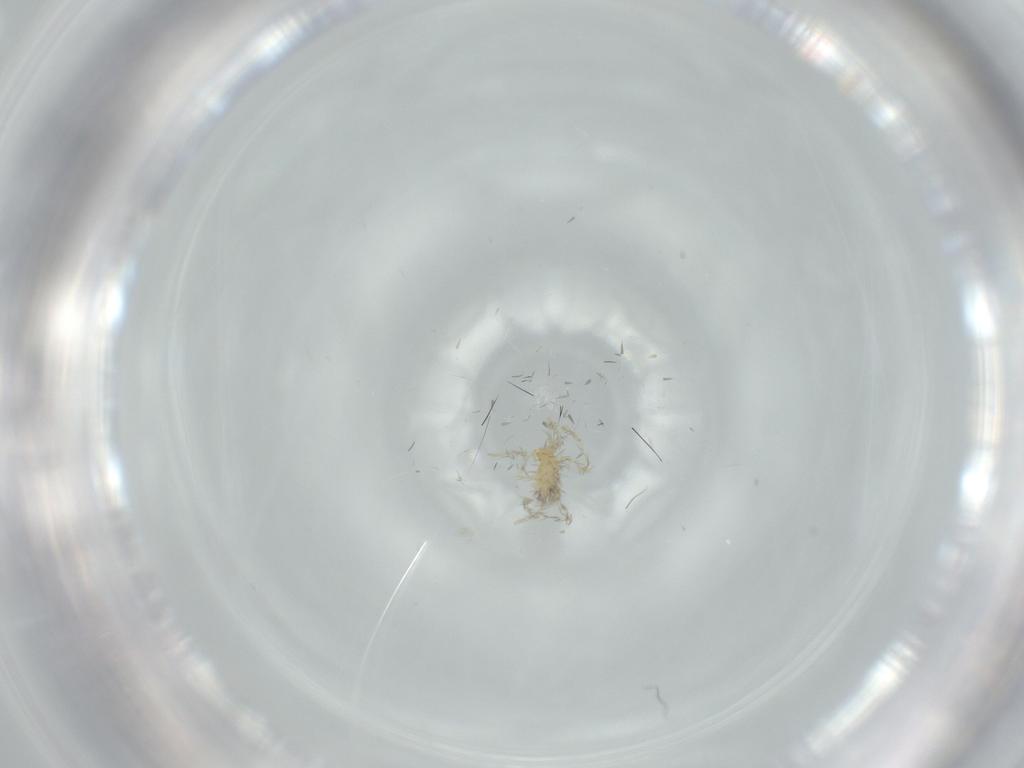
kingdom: Animalia
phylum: Arthropoda
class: Arachnida
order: Trombidiformes
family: Erythraeidae
